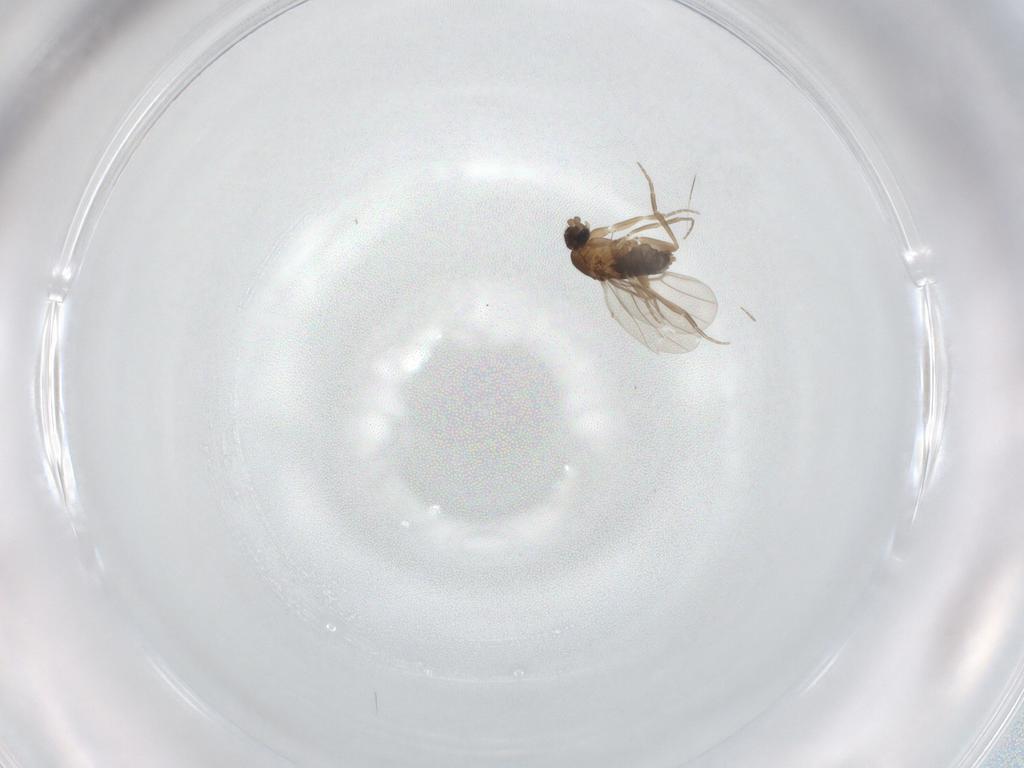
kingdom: Animalia
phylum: Arthropoda
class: Insecta
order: Diptera
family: Phoridae
